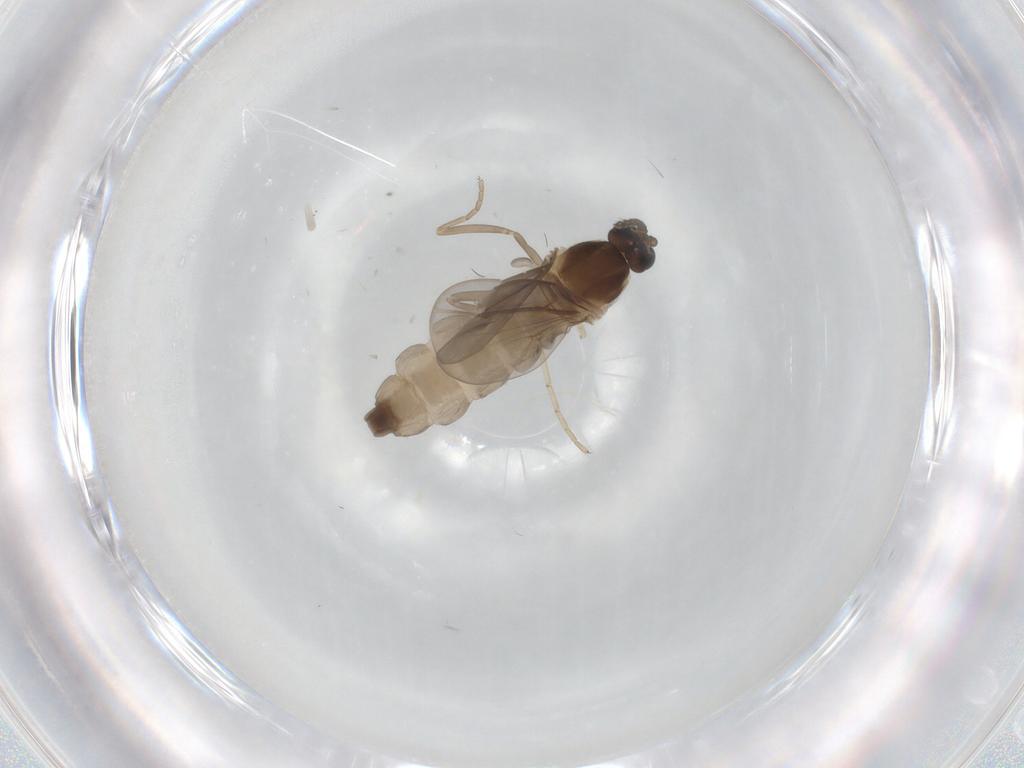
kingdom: Animalia
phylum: Arthropoda
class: Insecta
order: Diptera
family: Cecidomyiidae
